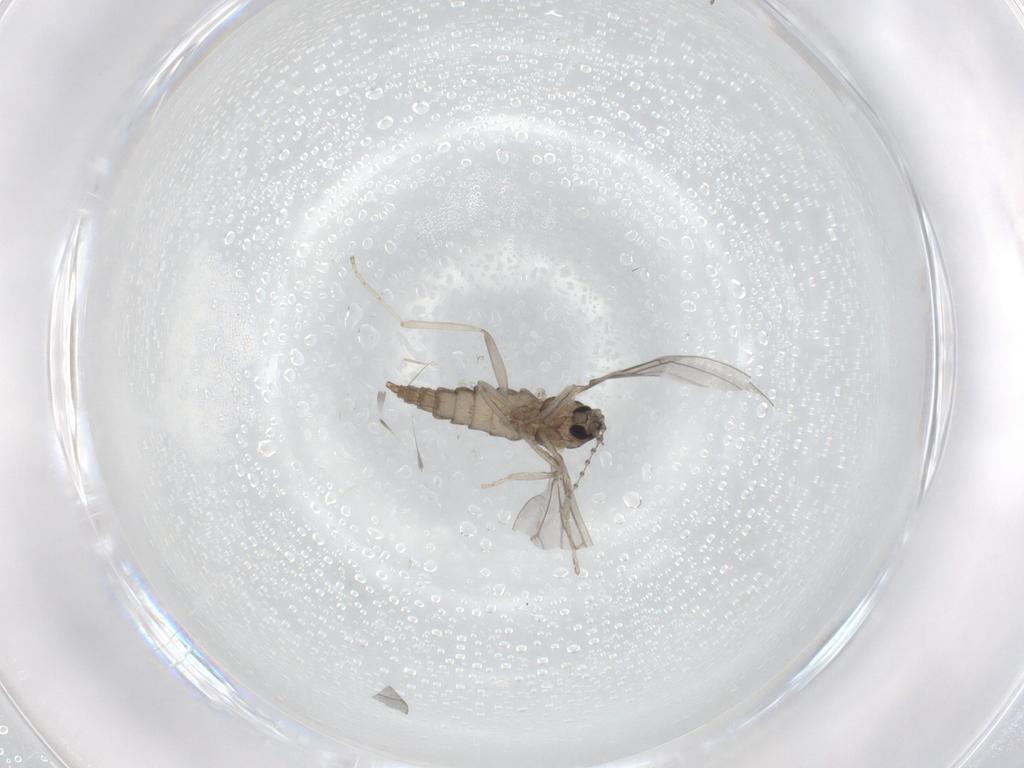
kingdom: Animalia
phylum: Arthropoda
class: Insecta
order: Diptera
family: Cecidomyiidae
